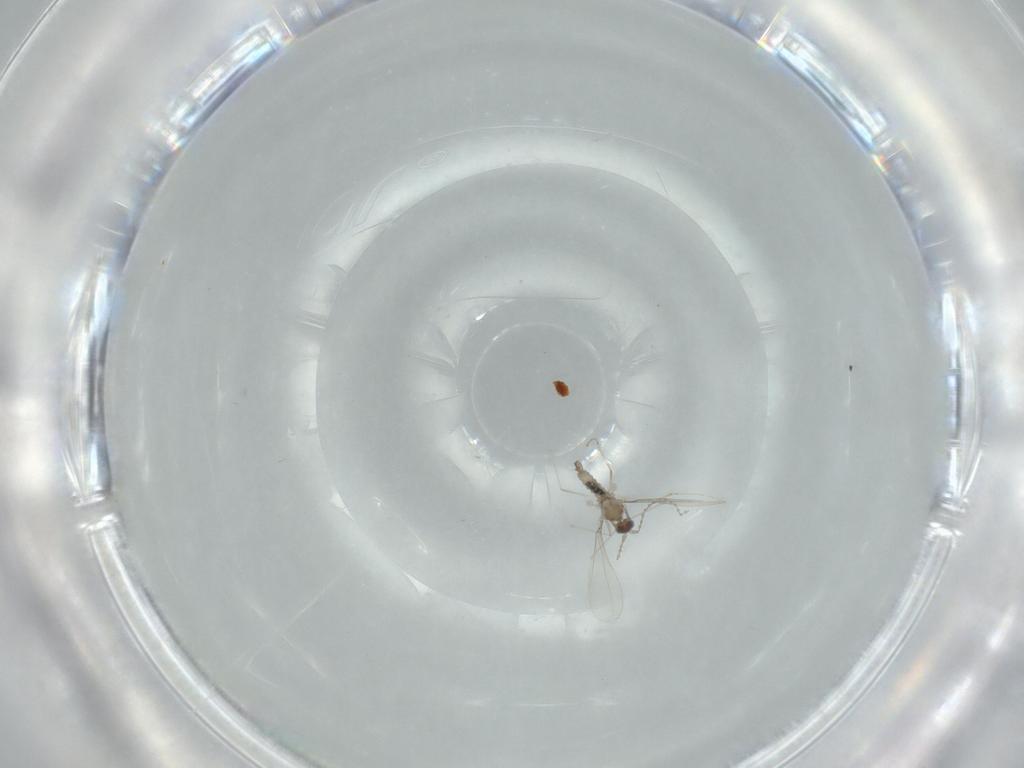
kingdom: Animalia
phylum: Arthropoda
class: Insecta
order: Diptera
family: Cecidomyiidae
